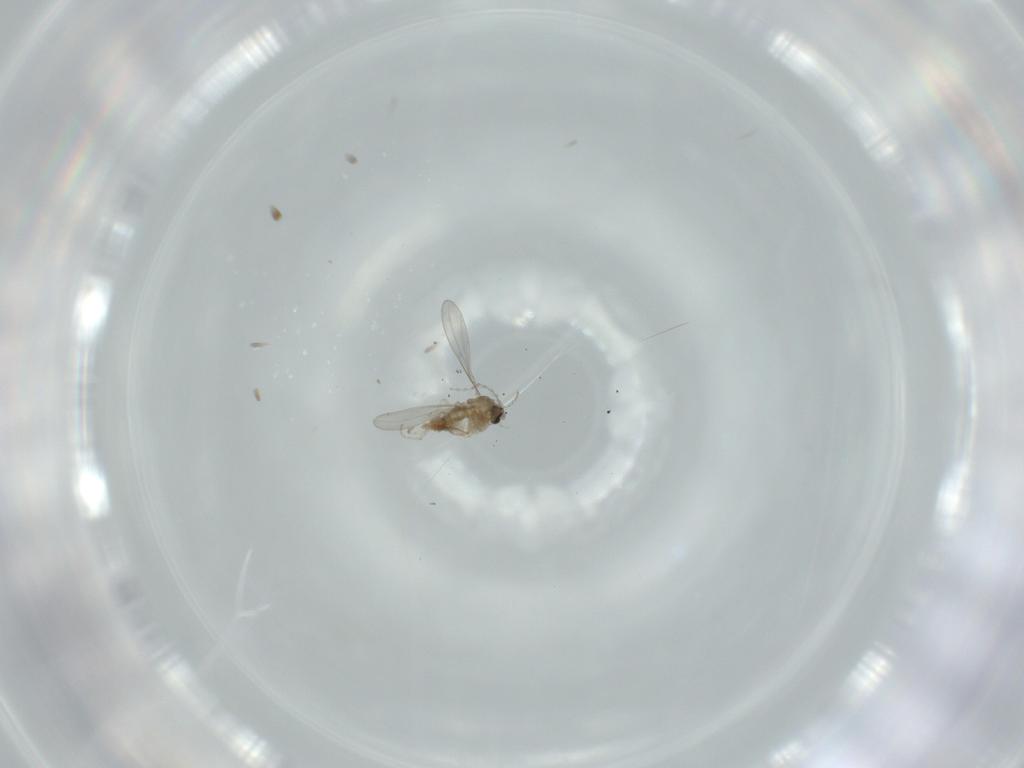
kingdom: Animalia
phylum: Arthropoda
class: Insecta
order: Diptera
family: Cecidomyiidae
